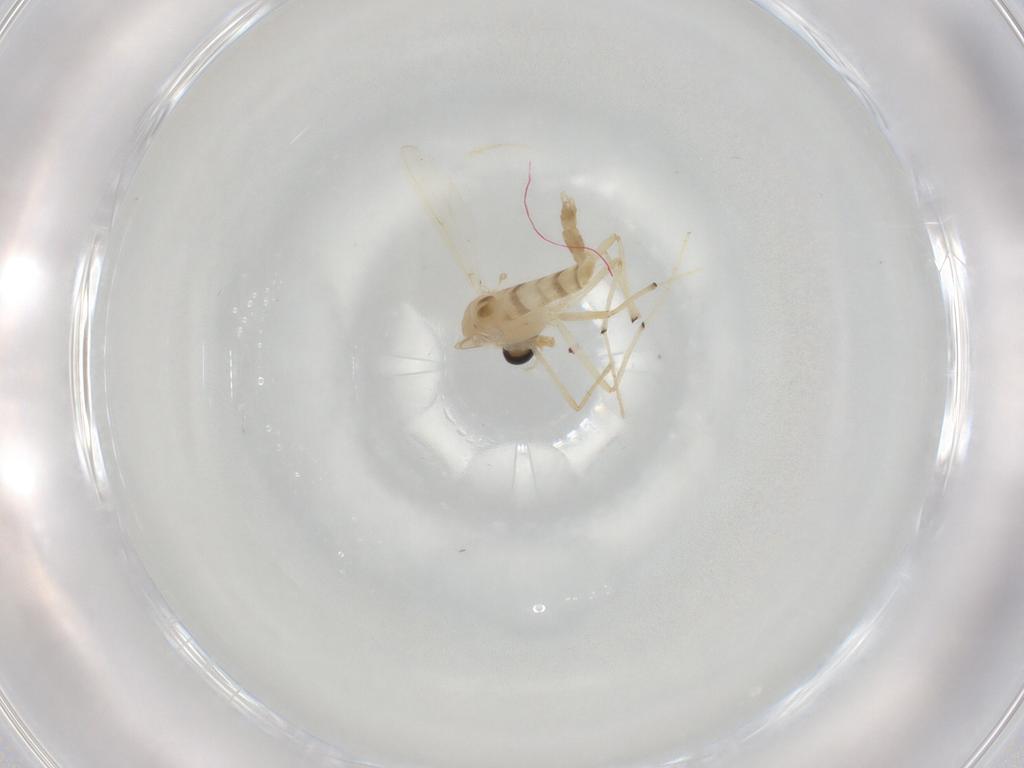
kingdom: Animalia
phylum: Arthropoda
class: Insecta
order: Diptera
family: Chironomidae
